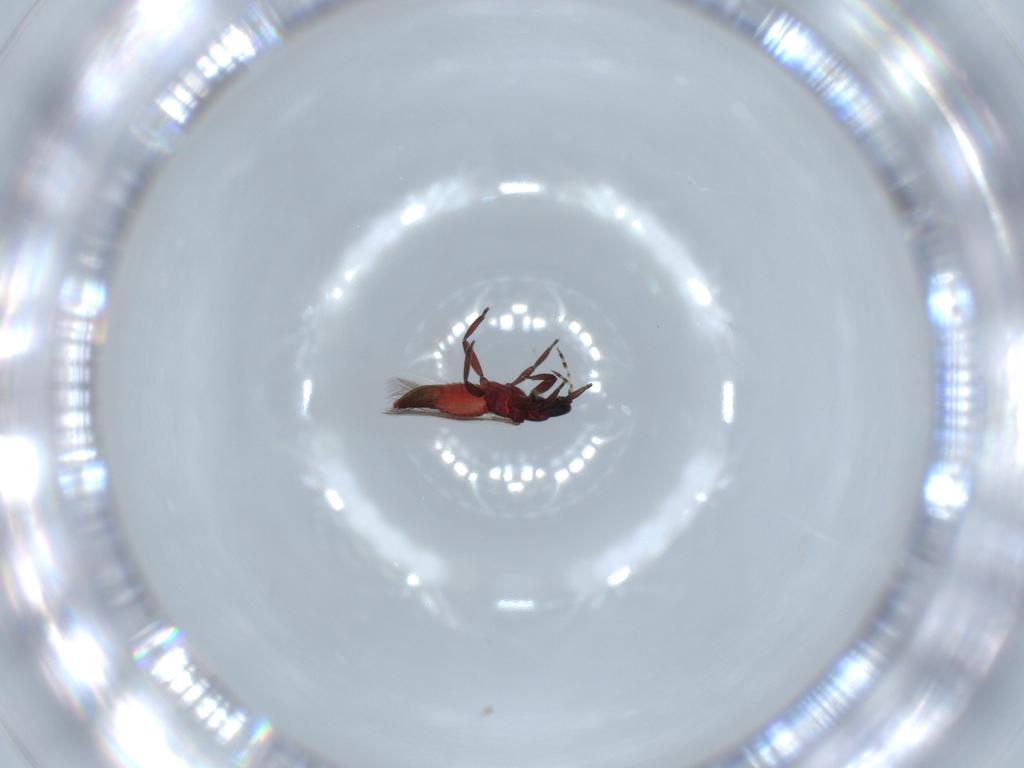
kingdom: Animalia
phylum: Arthropoda
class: Insecta
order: Thysanoptera
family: Aeolothripidae
